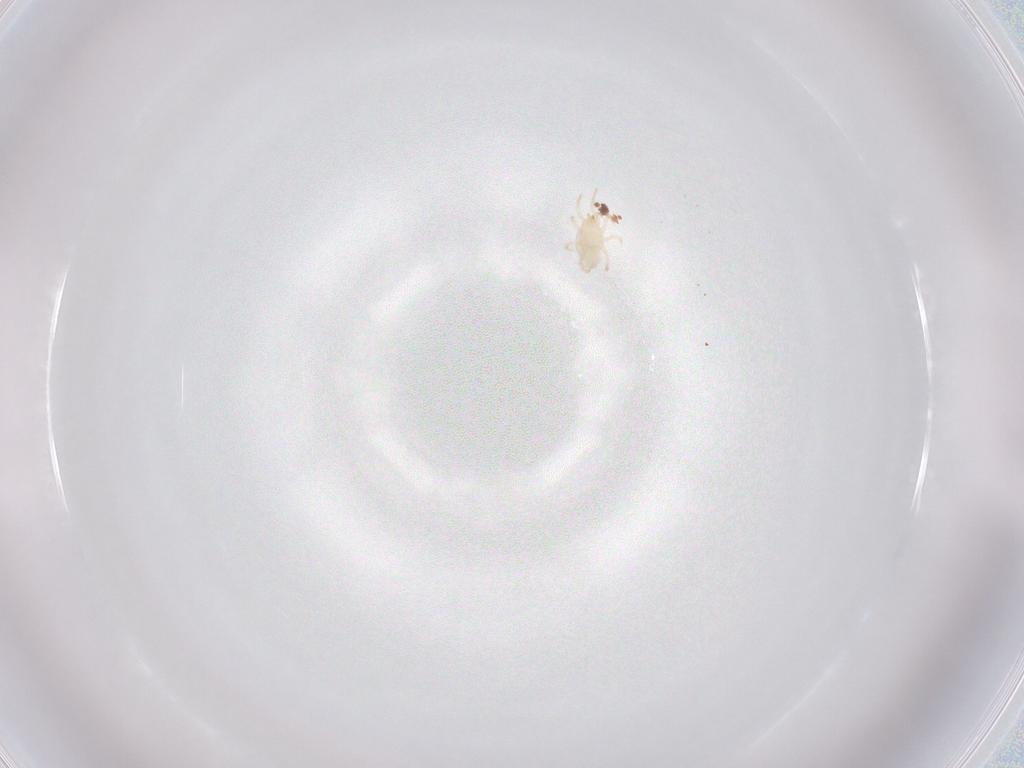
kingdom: Animalia
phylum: Arthropoda
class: Arachnida
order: Mesostigmata
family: Phytoseiidae
